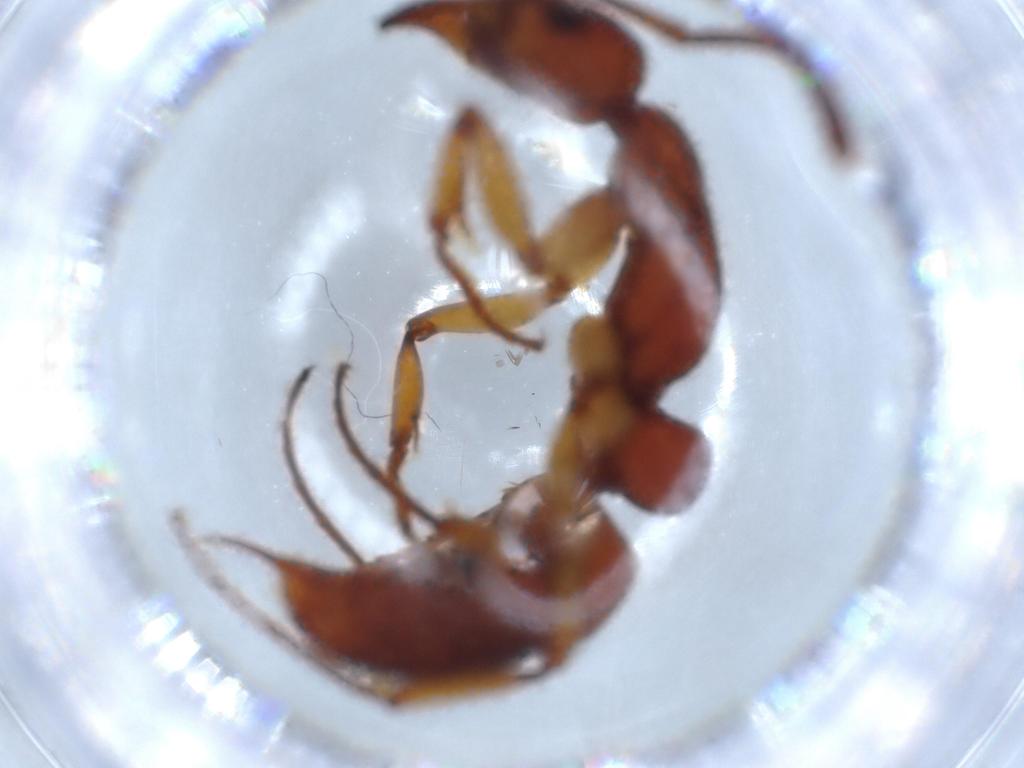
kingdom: Animalia
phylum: Arthropoda
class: Insecta
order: Hymenoptera
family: Formicidae
